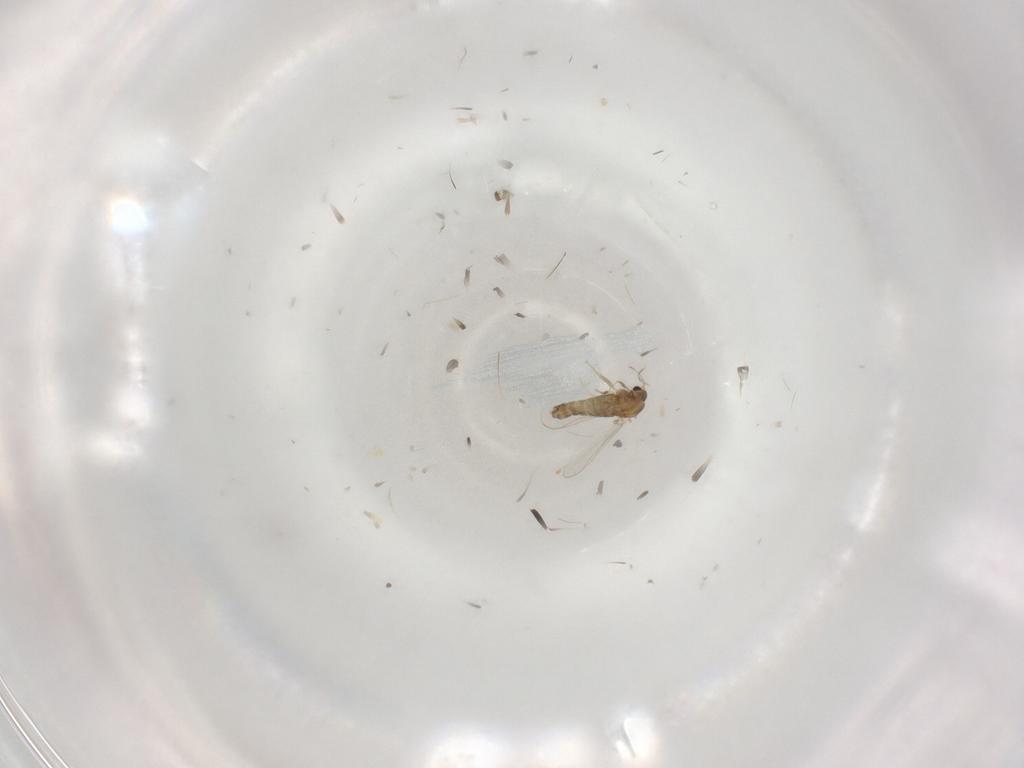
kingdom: Animalia
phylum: Arthropoda
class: Insecta
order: Diptera
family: Chironomidae
